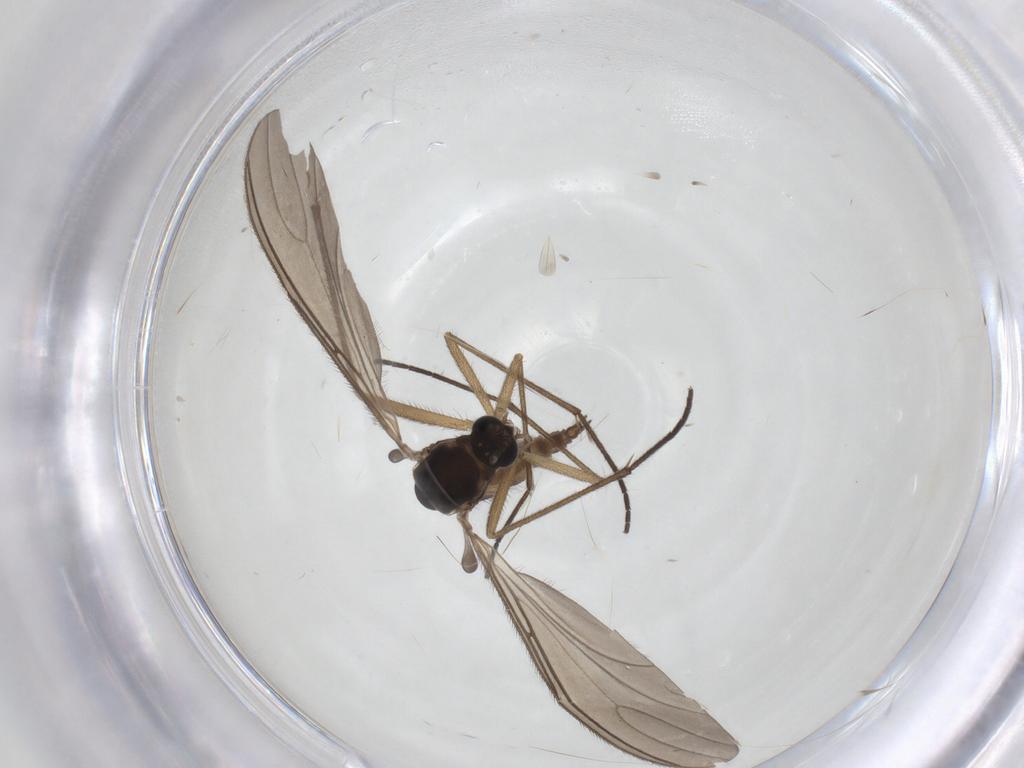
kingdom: Animalia
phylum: Arthropoda
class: Insecta
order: Diptera
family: Sciaridae
